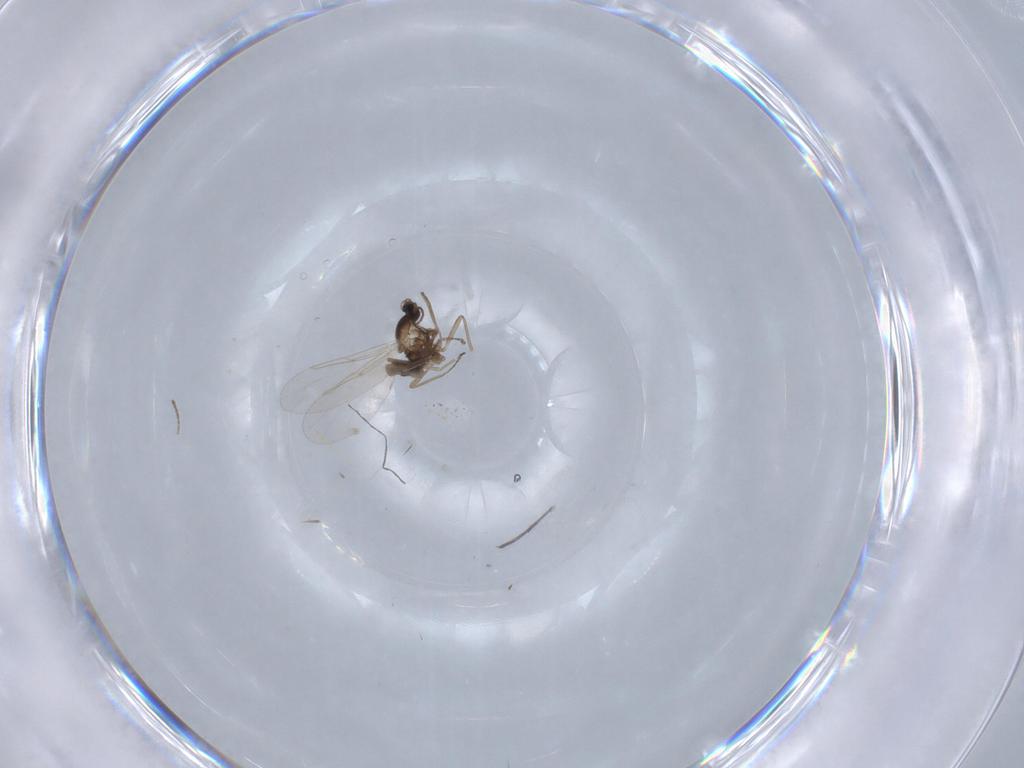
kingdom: Animalia
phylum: Arthropoda
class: Insecta
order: Diptera
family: Cecidomyiidae
